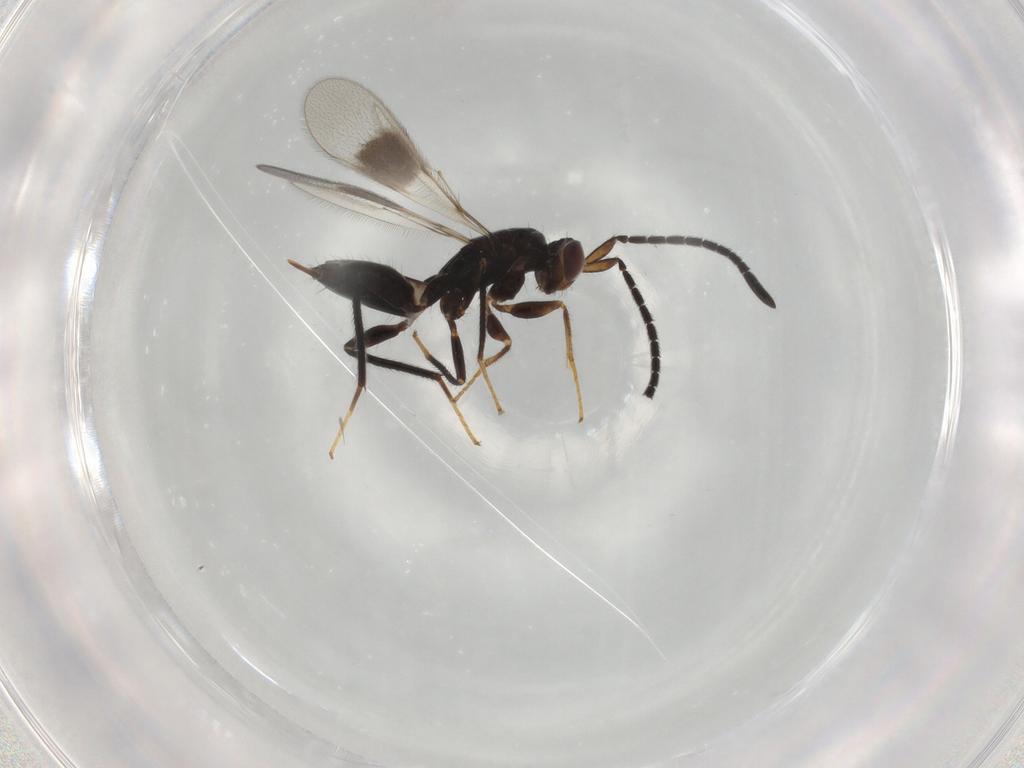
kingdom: Animalia
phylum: Arthropoda
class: Insecta
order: Hymenoptera
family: Mymaridae
